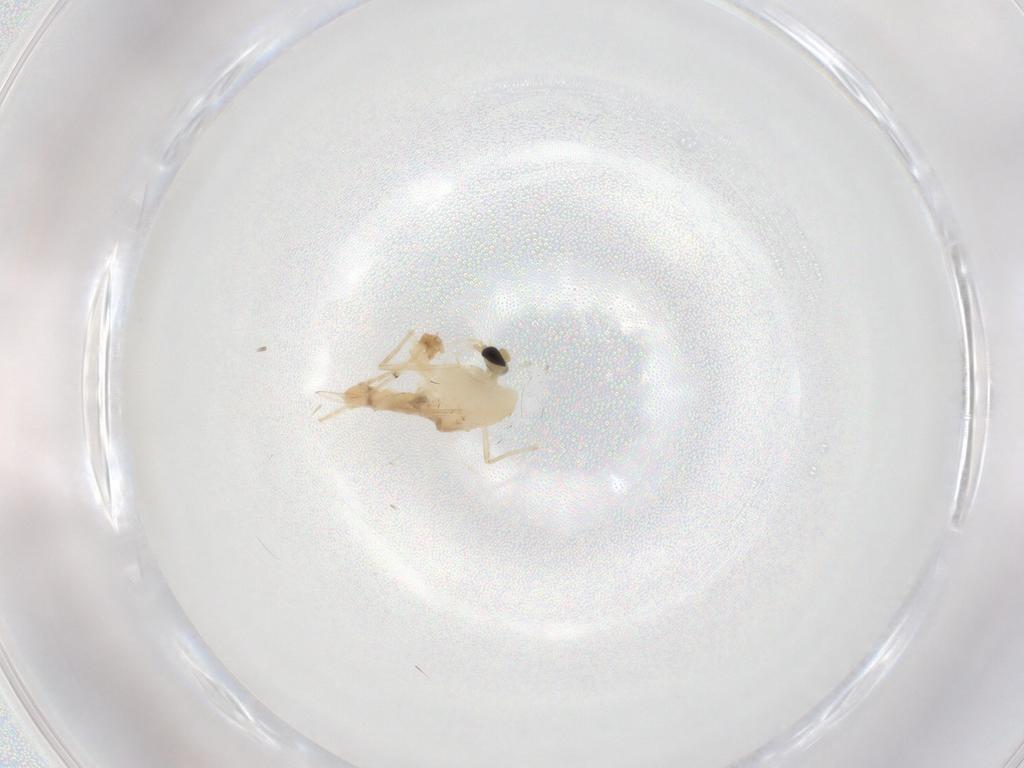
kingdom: Animalia
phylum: Arthropoda
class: Insecta
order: Diptera
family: Chironomidae
